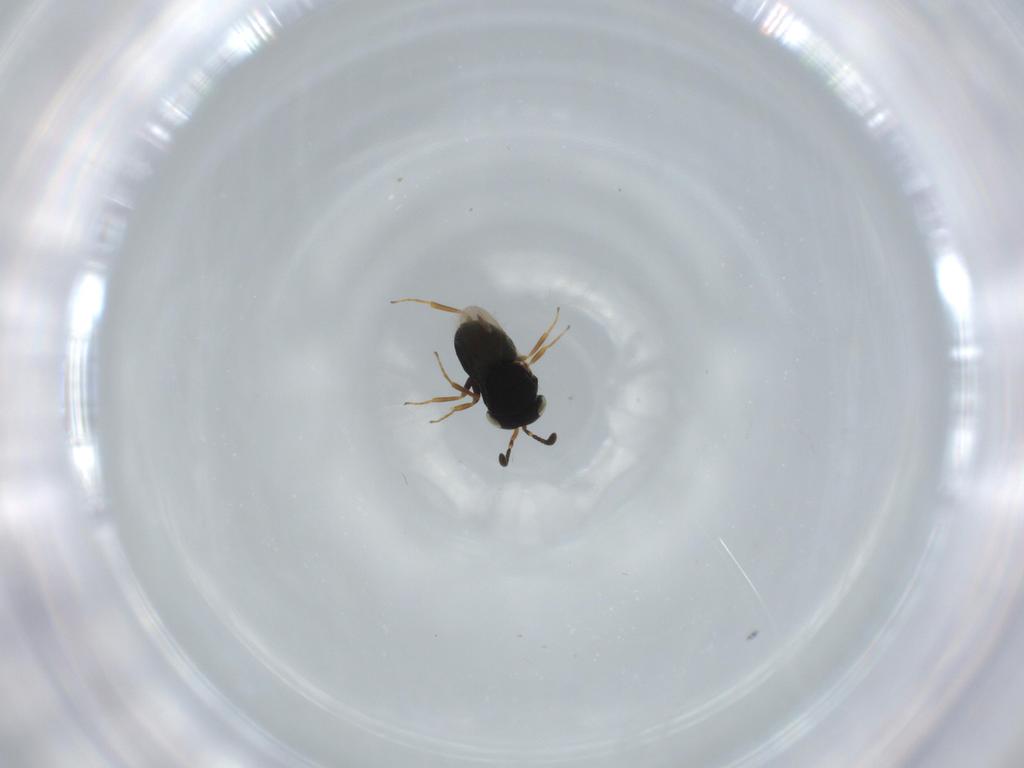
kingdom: Animalia
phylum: Arthropoda
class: Insecta
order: Hymenoptera
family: Scelionidae
